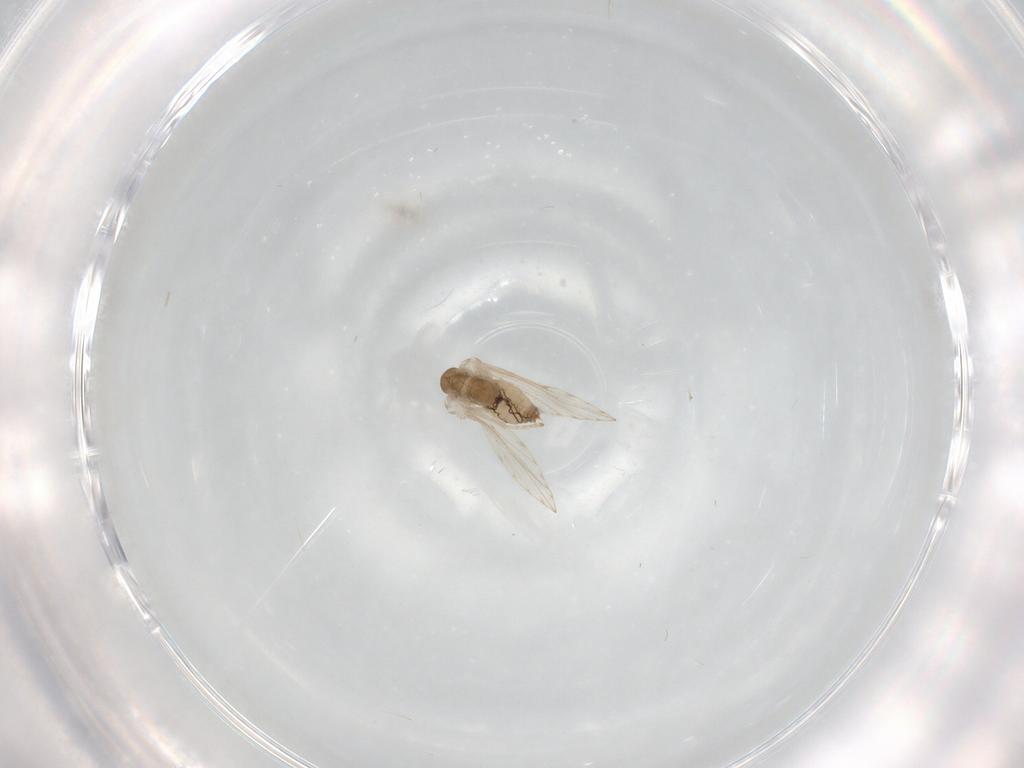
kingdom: Animalia
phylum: Arthropoda
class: Insecta
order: Diptera
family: Psychodidae
